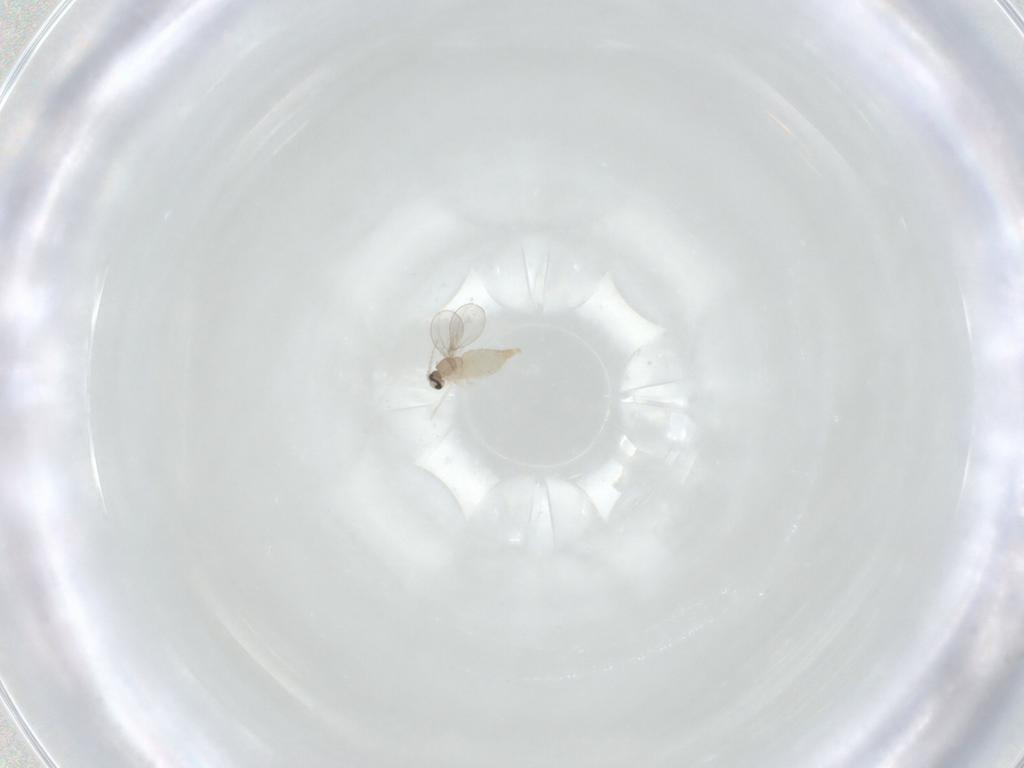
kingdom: Animalia
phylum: Arthropoda
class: Insecta
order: Diptera
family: Cecidomyiidae
